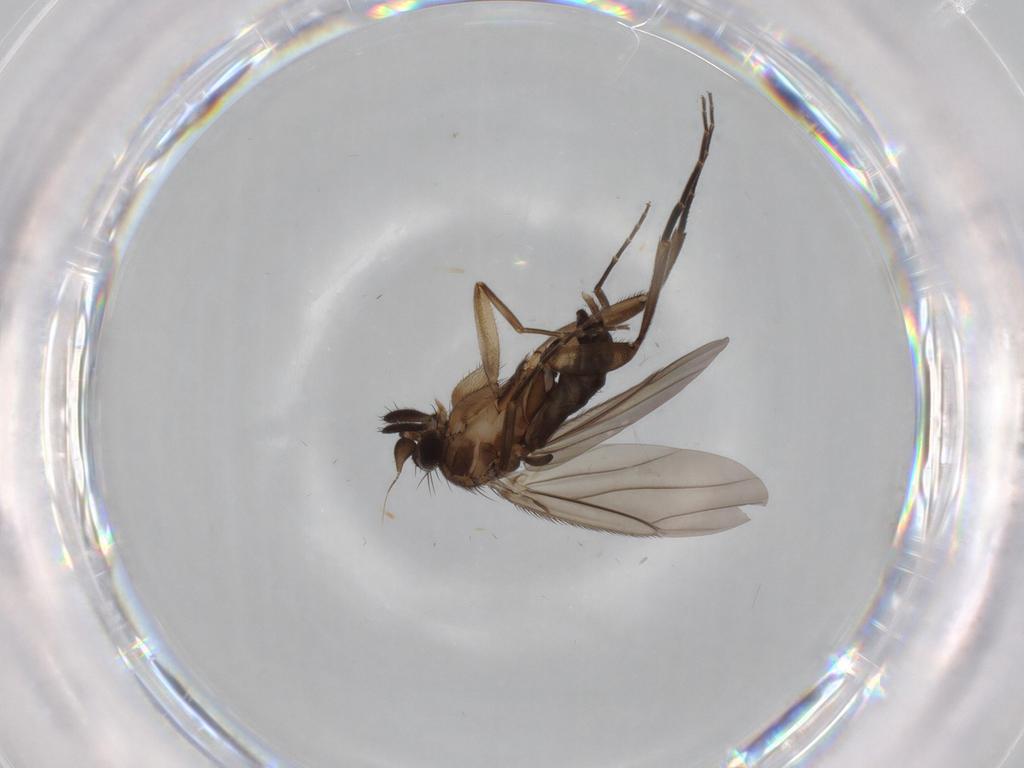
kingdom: Animalia
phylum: Arthropoda
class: Insecta
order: Diptera
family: Phoridae
